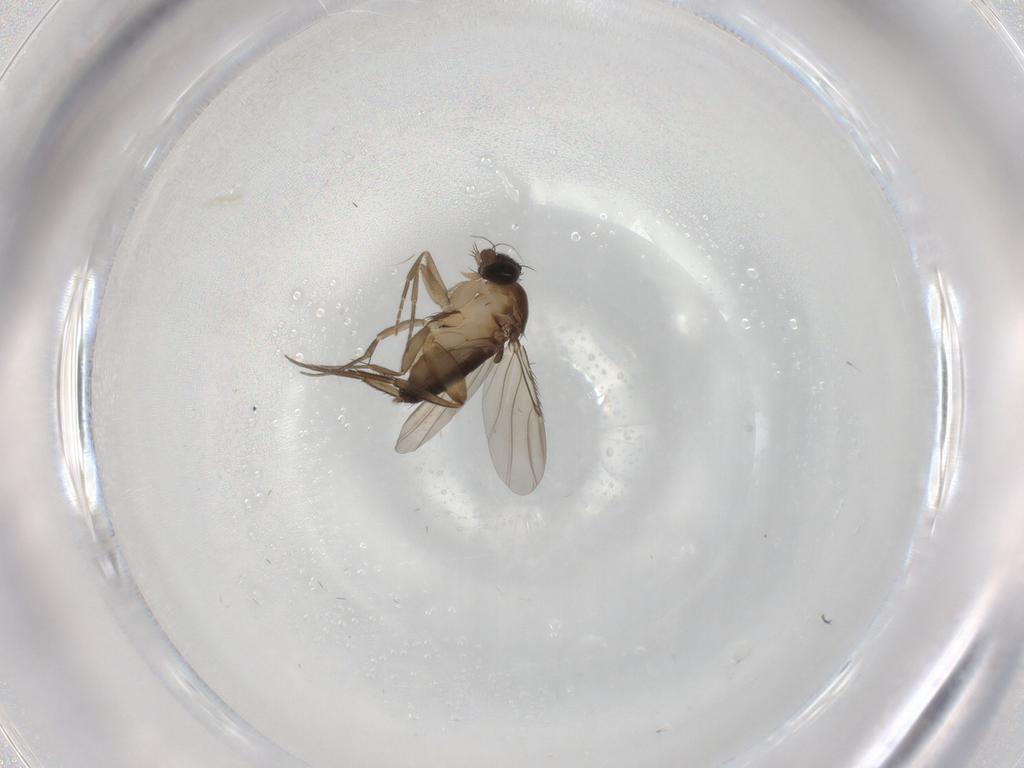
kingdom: Animalia
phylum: Arthropoda
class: Insecta
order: Diptera
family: Phoridae
